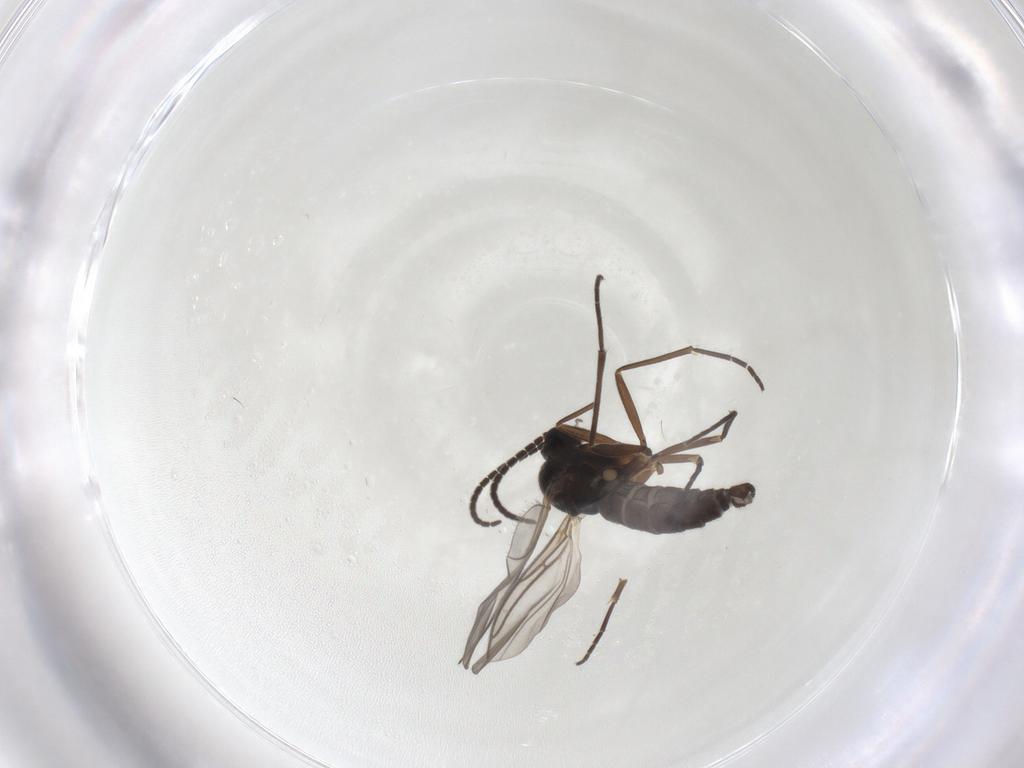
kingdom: Animalia
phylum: Arthropoda
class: Insecta
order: Diptera
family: Sciaridae
